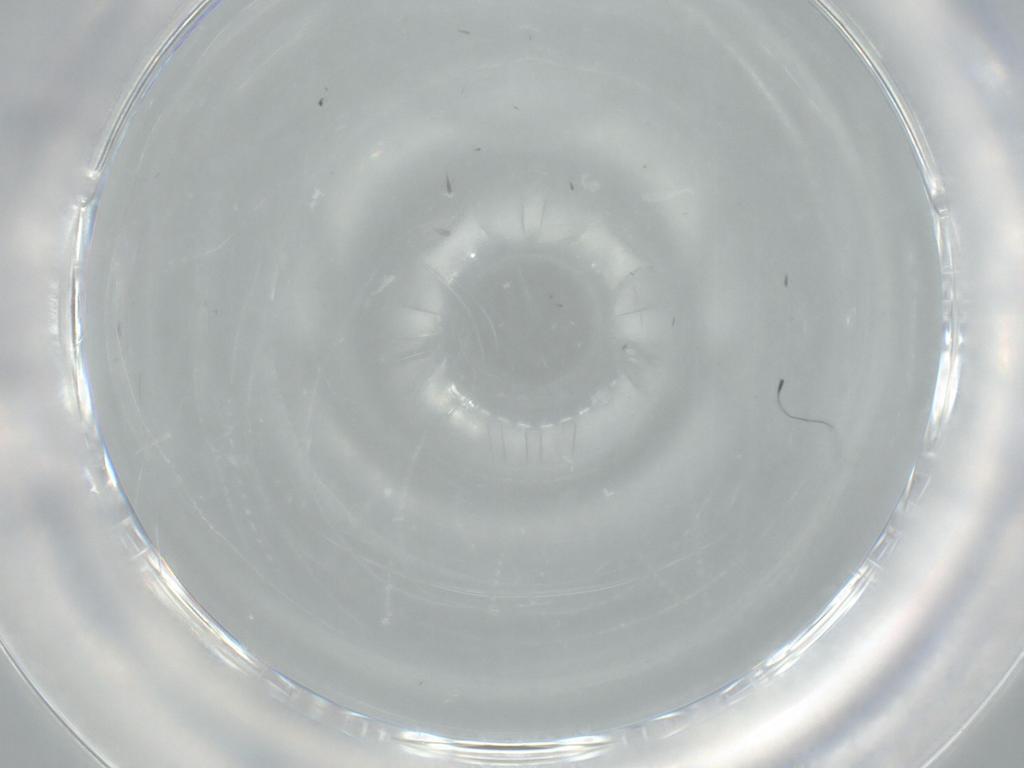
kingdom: Animalia
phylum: Arthropoda
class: Insecta
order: Lepidoptera
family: Tineidae
